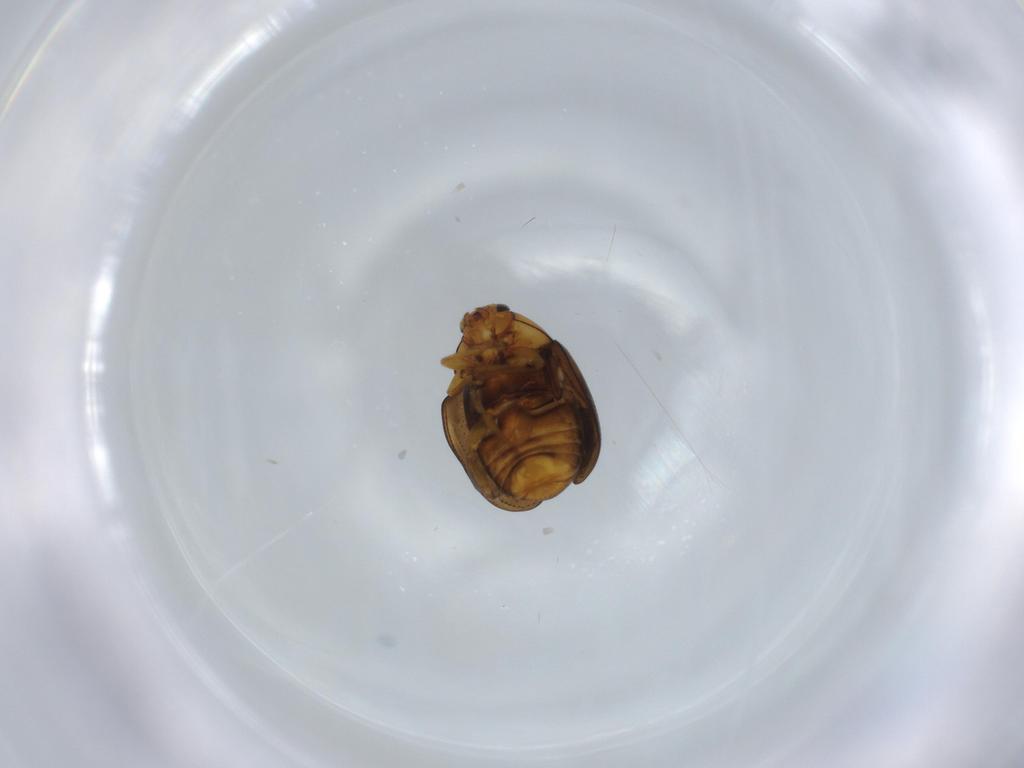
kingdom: Animalia
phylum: Arthropoda
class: Insecta
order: Coleoptera
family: Chrysomelidae
